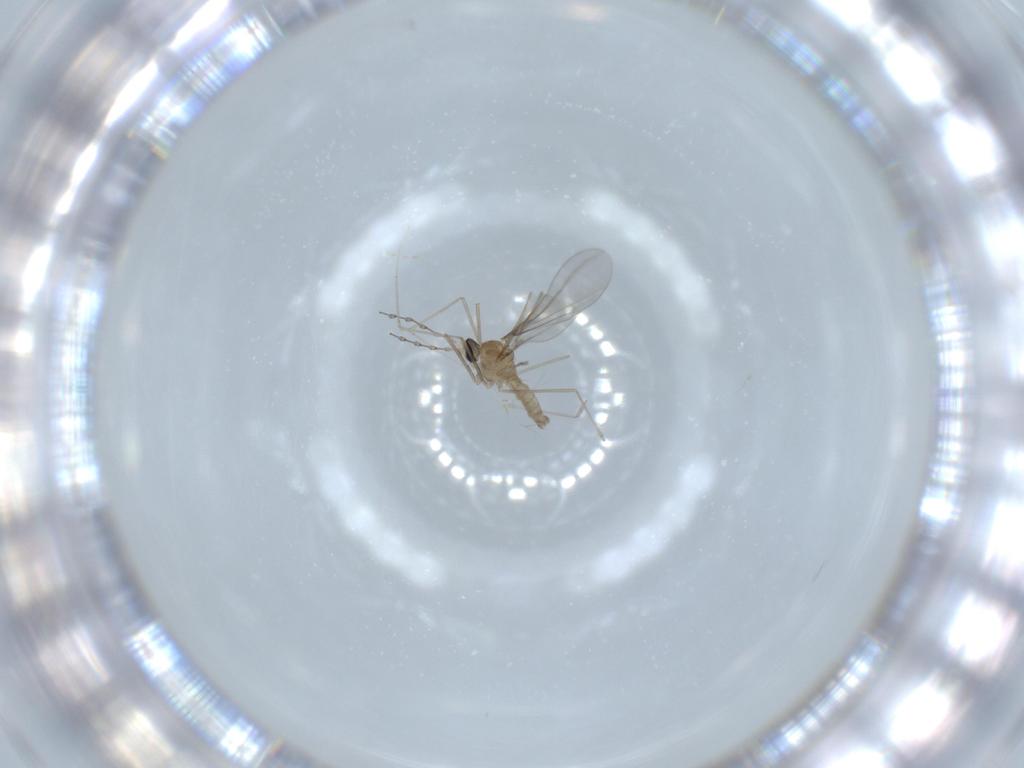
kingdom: Animalia
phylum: Arthropoda
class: Insecta
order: Diptera
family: Cecidomyiidae
